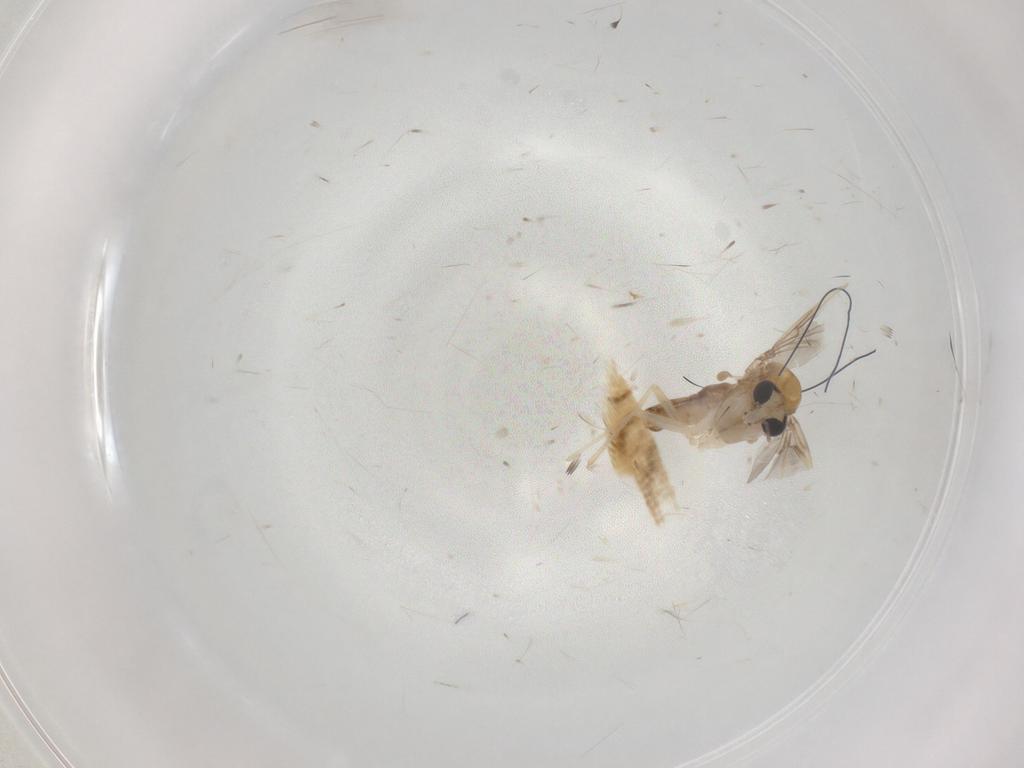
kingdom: Animalia
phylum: Arthropoda
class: Insecta
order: Diptera
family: Chironomidae
